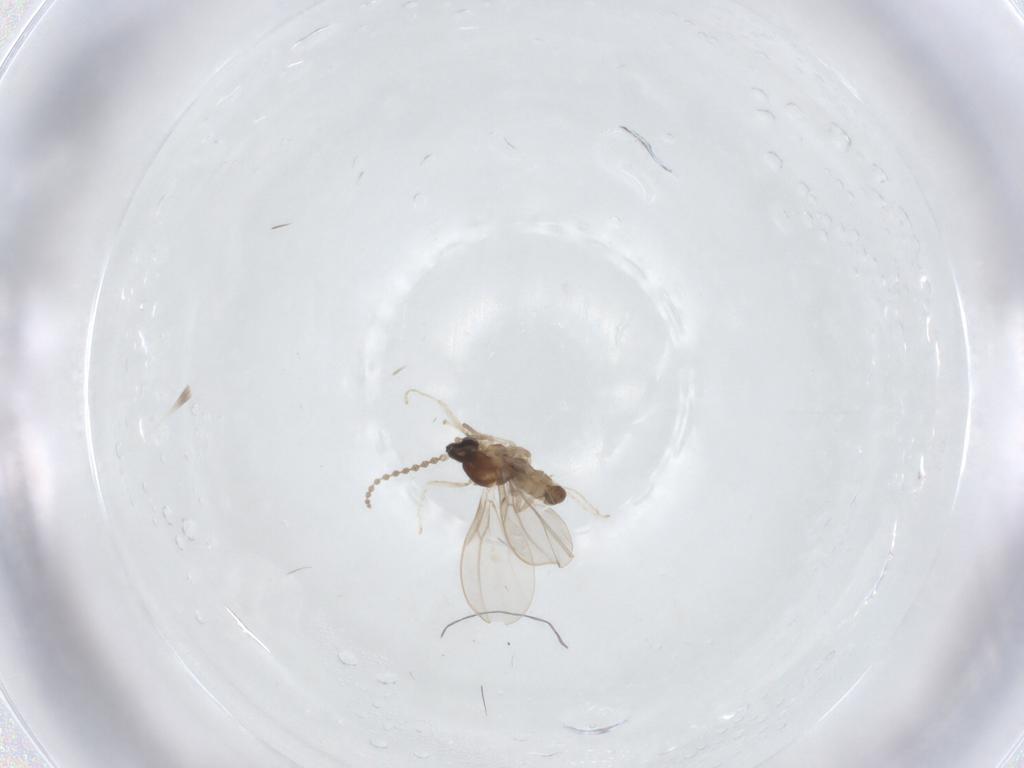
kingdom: Animalia
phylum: Arthropoda
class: Insecta
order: Diptera
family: Cecidomyiidae
